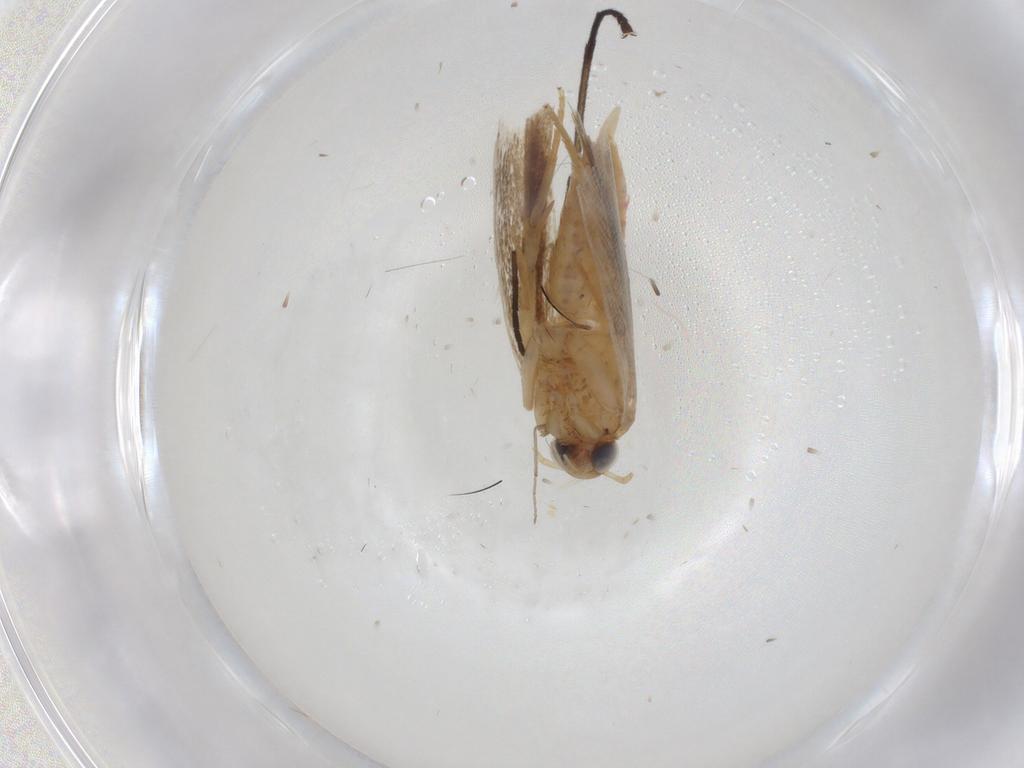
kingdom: Animalia
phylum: Arthropoda
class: Insecta
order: Lepidoptera
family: Gelechiidae
